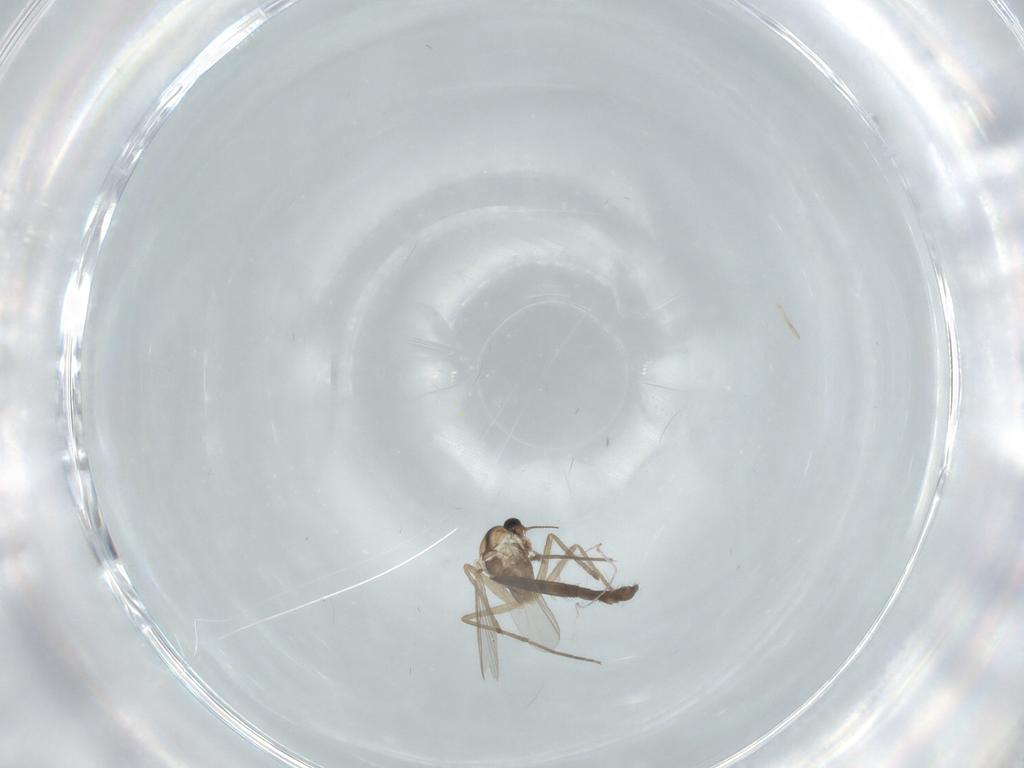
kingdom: Animalia
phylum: Arthropoda
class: Insecta
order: Diptera
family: Chironomidae
